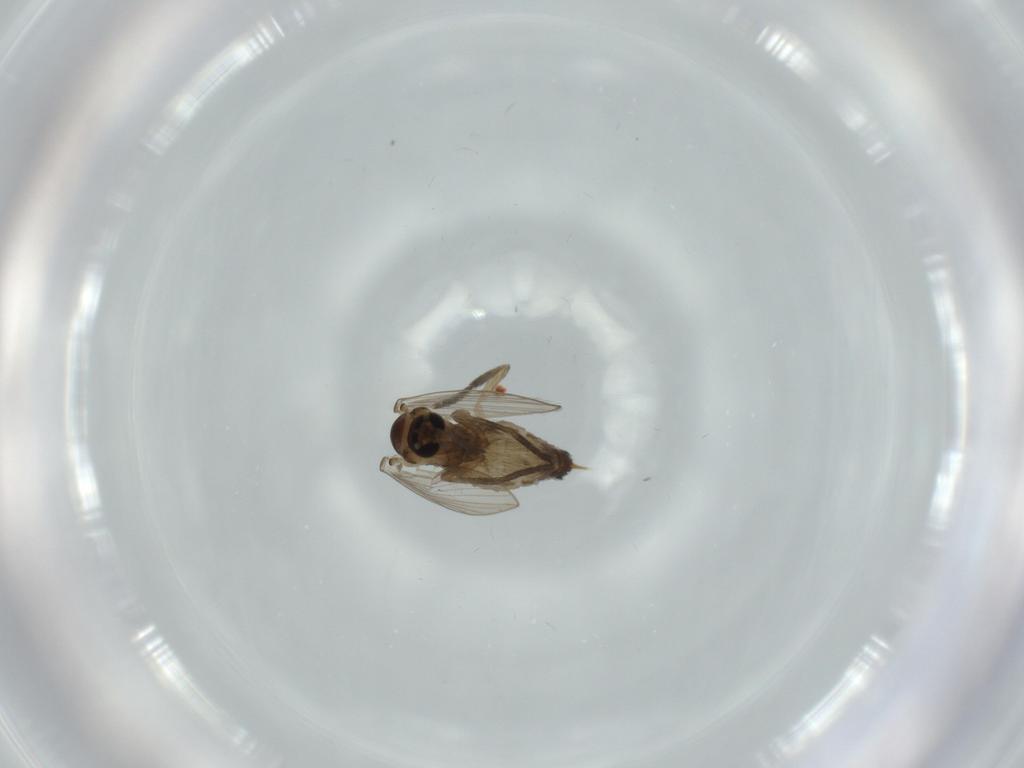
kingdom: Animalia
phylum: Arthropoda
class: Insecta
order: Diptera
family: Psychodidae
